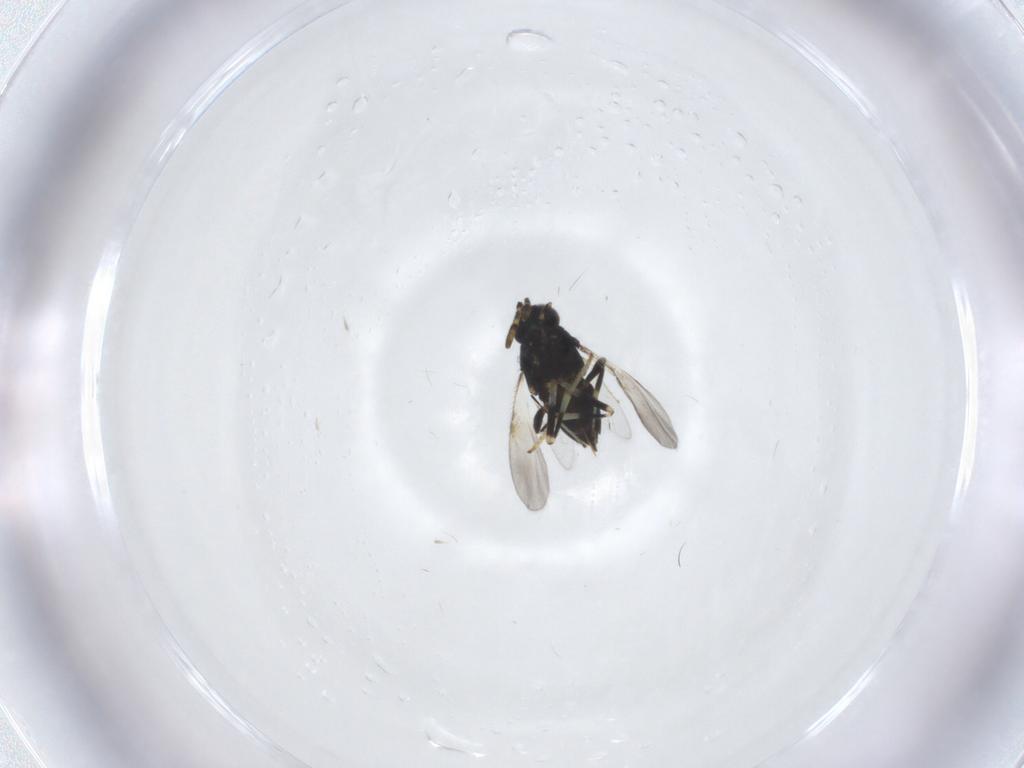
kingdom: Animalia
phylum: Arthropoda
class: Insecta
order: Hymenoptera
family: Encyrtidae
